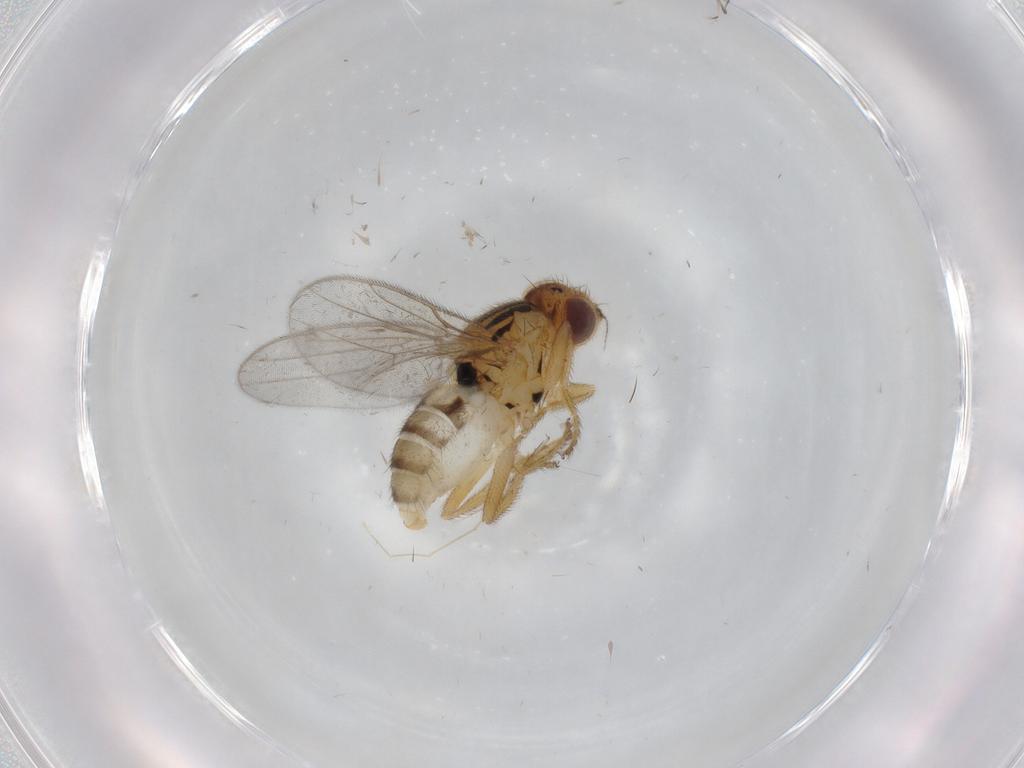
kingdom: Animalia
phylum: Arthropoda
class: Insecta
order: Diptera
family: Chloropidae
